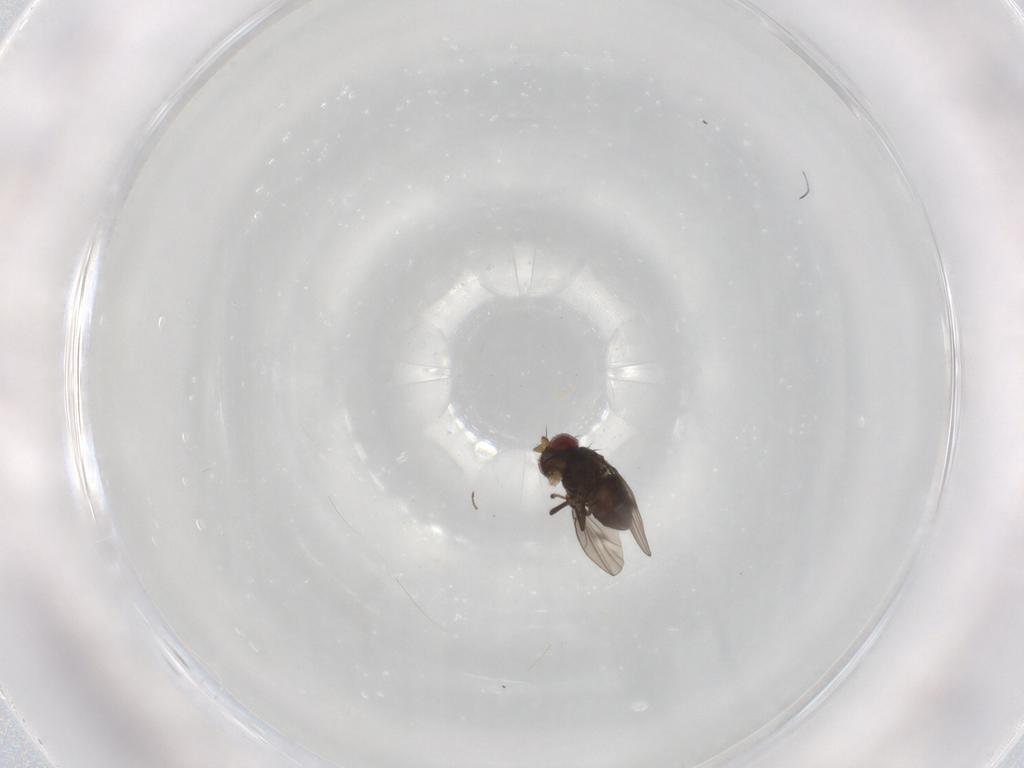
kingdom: Animalia
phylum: Arthropoda
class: Insecta
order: Diptera
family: Ephydridae
